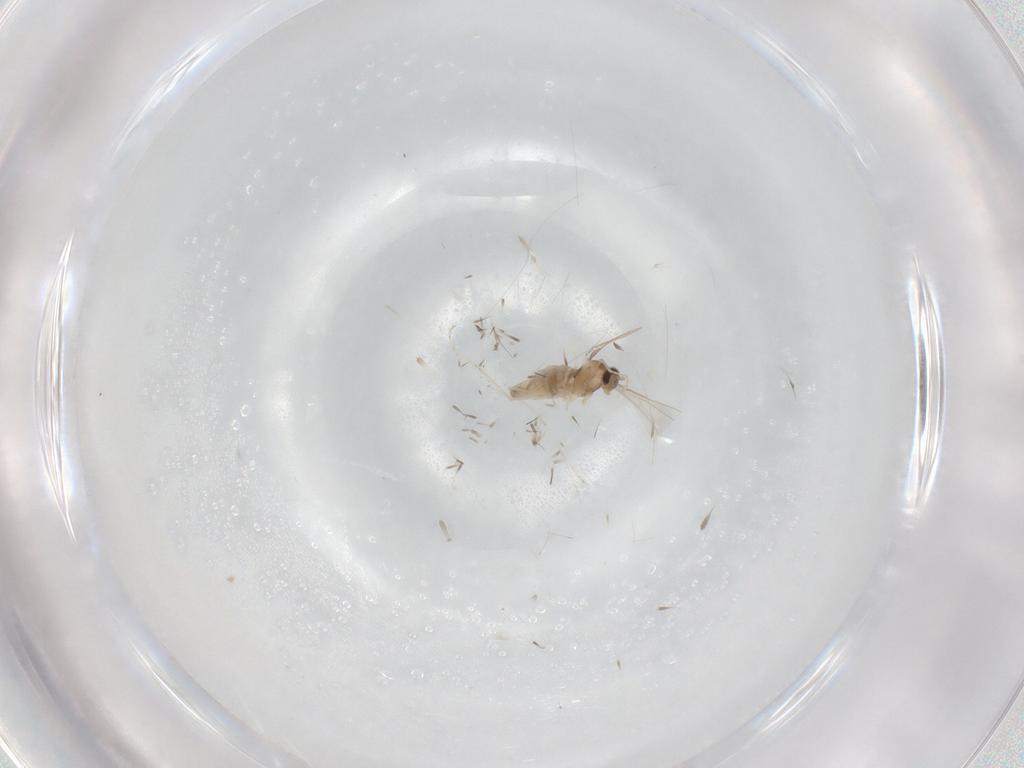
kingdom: Animalia
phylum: Arthropoda
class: Insecta
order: Diptera
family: Cecidomyiidae
